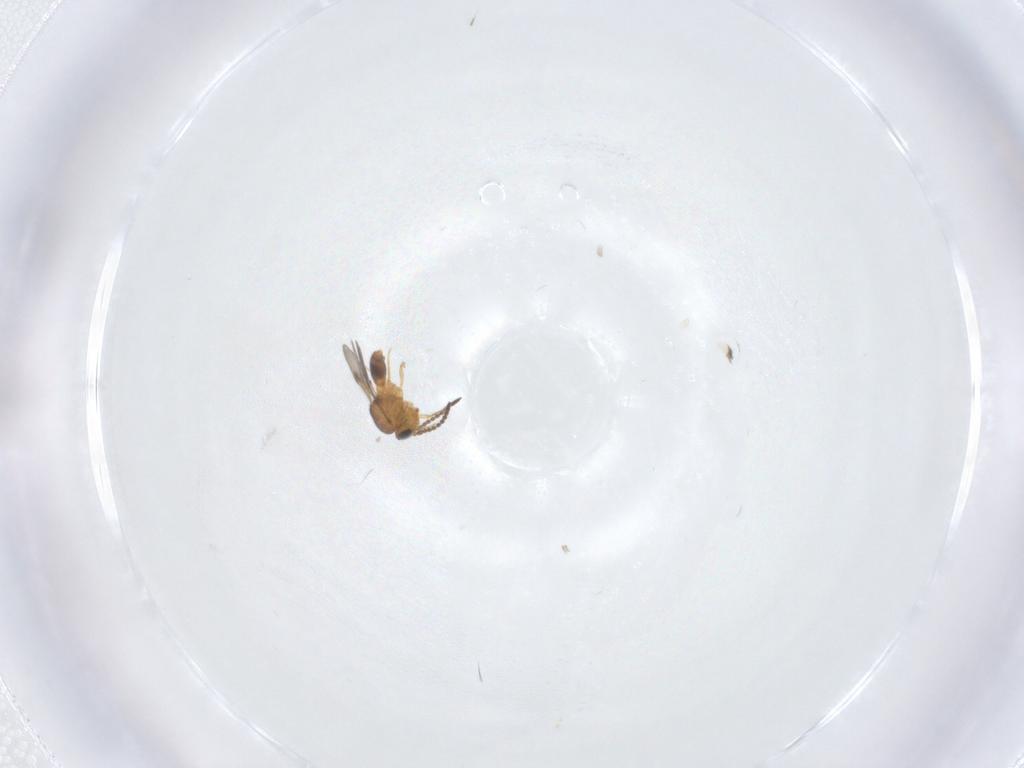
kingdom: Animalia
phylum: Arthropoda
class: Insecta
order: Hymenoptera
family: Scelionidae
